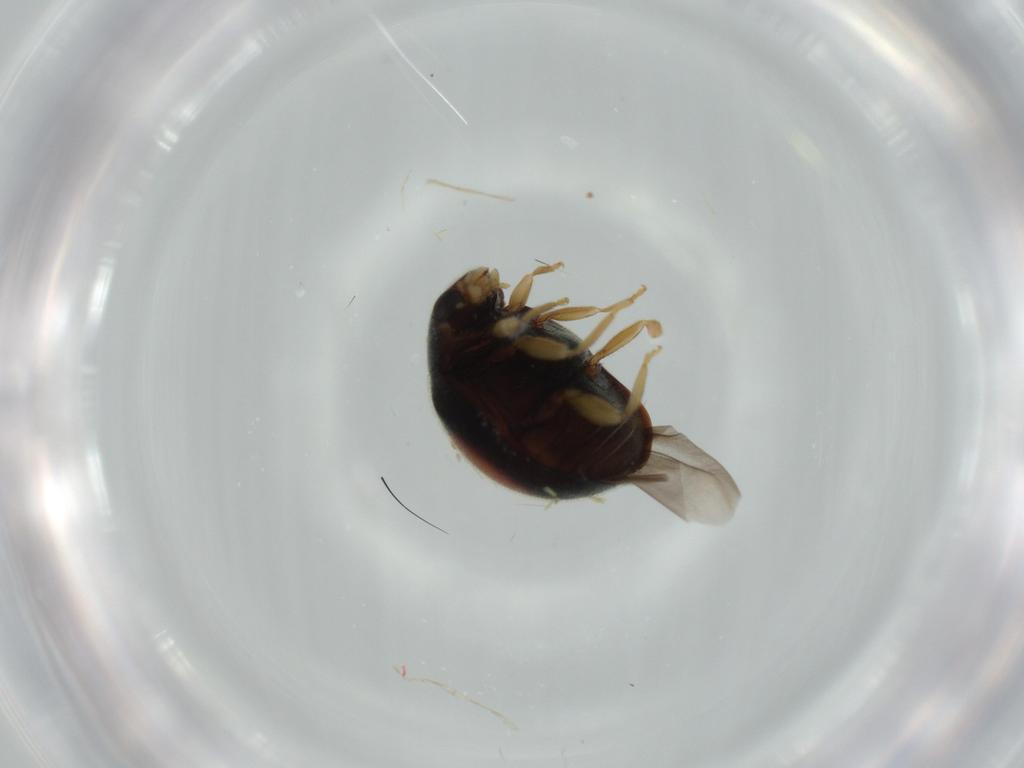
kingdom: Animalia
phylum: Arthropoda
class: Insecta
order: Coleoptera
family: Coccinellidae
